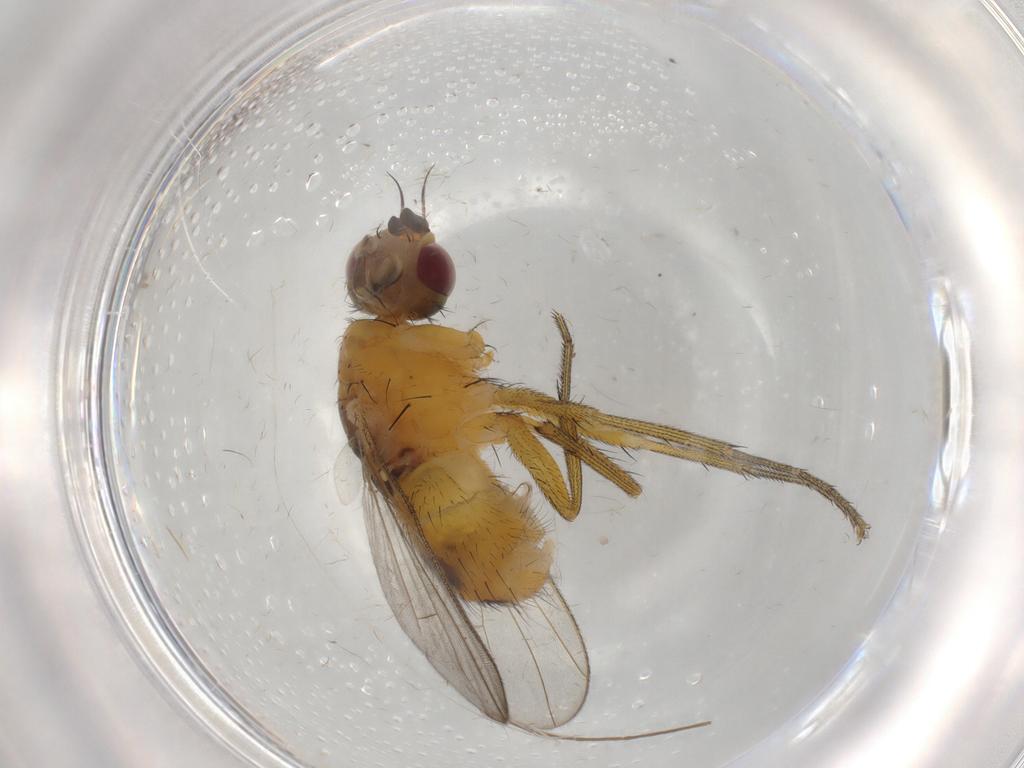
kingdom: Animalia
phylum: Arthropoda
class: Insecta
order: Diptera
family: Muscidae
